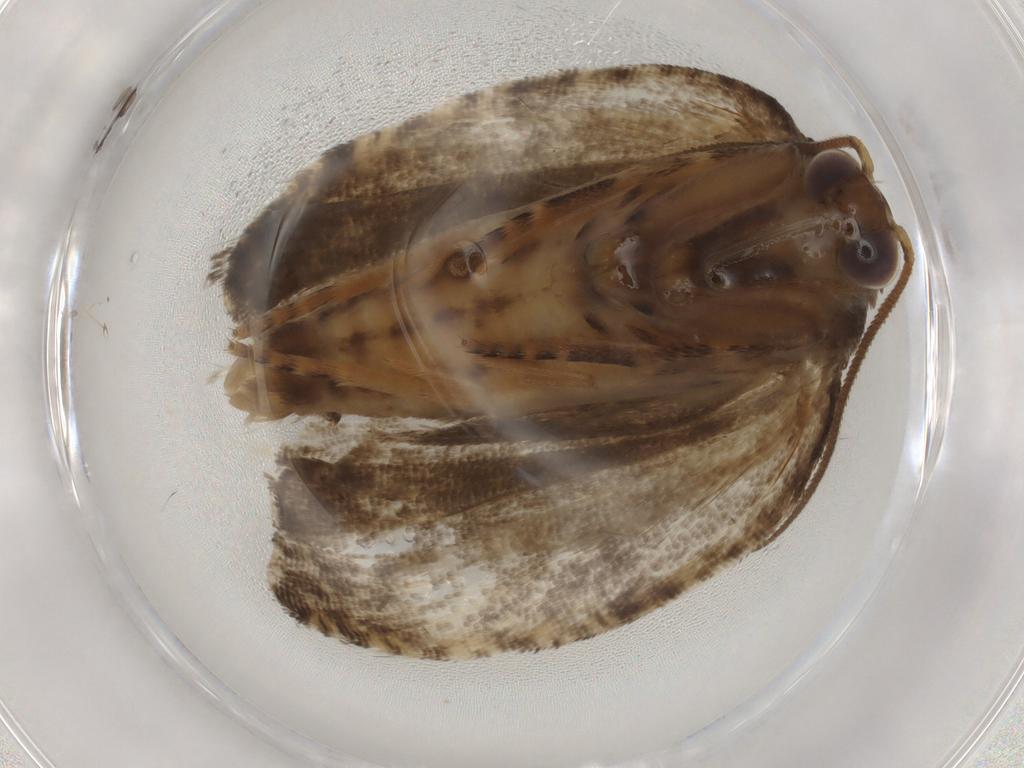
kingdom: Animalia
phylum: Arthropoda
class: Insecta
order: Lepidoptera
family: Tortricidae
